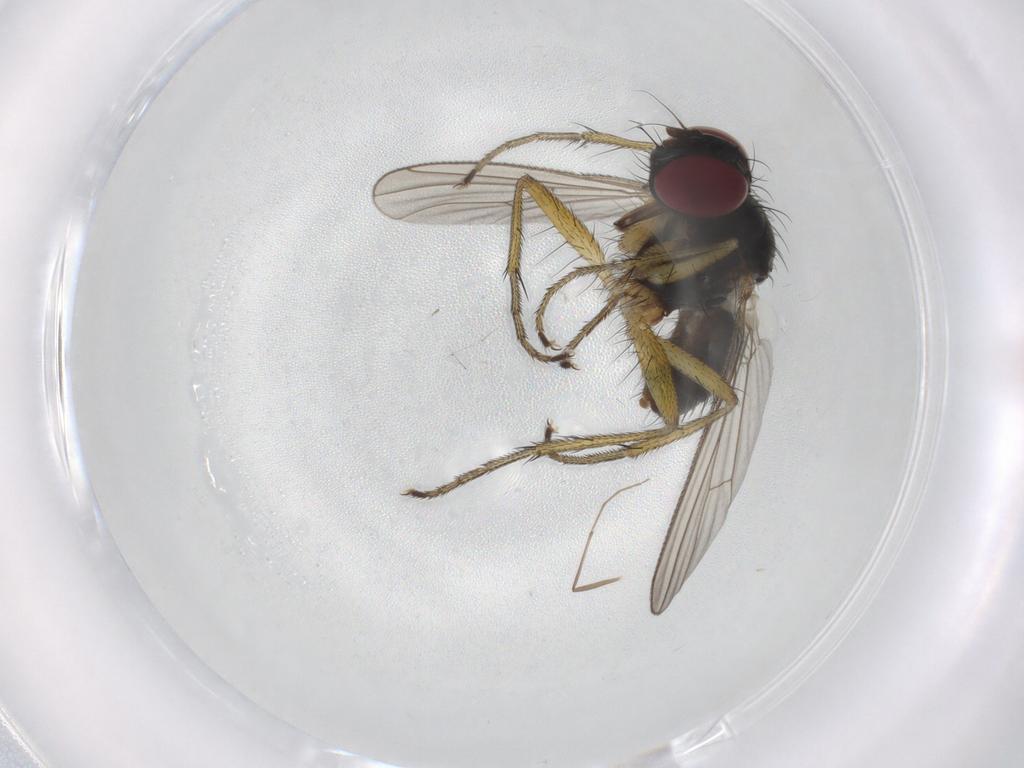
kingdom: Animalia
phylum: Arthropoda
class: Insecta
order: Diptera
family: Muscidae
